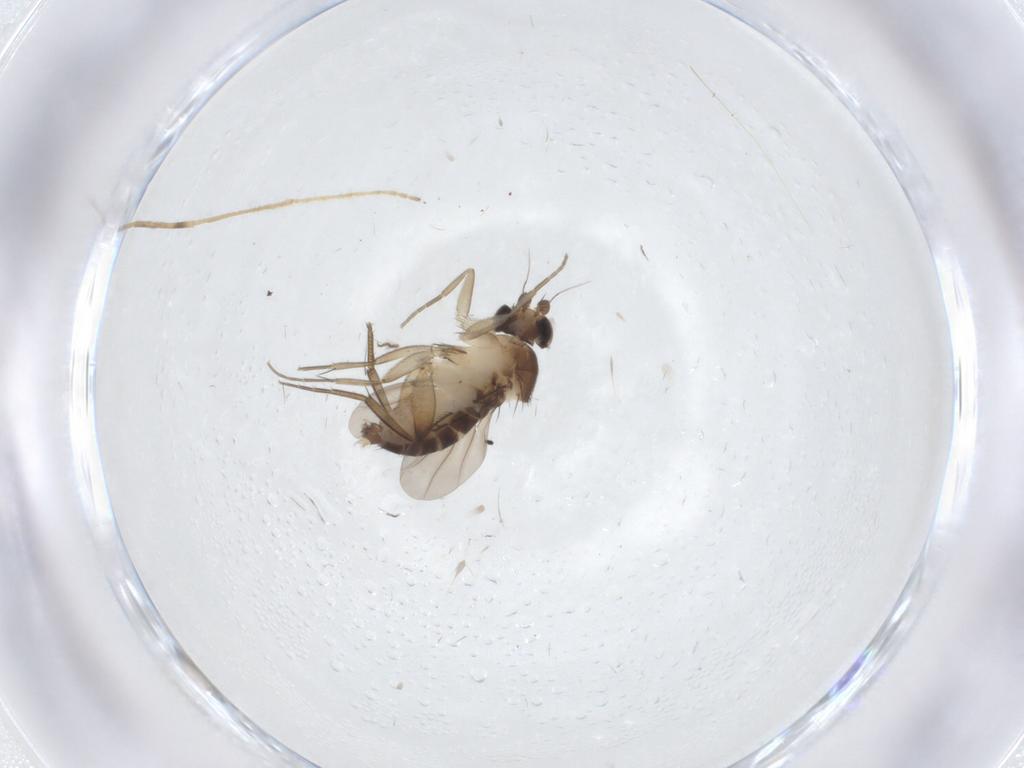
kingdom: Animalia
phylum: Arthropoda
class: Insecta
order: Diptera
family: Phoridae
